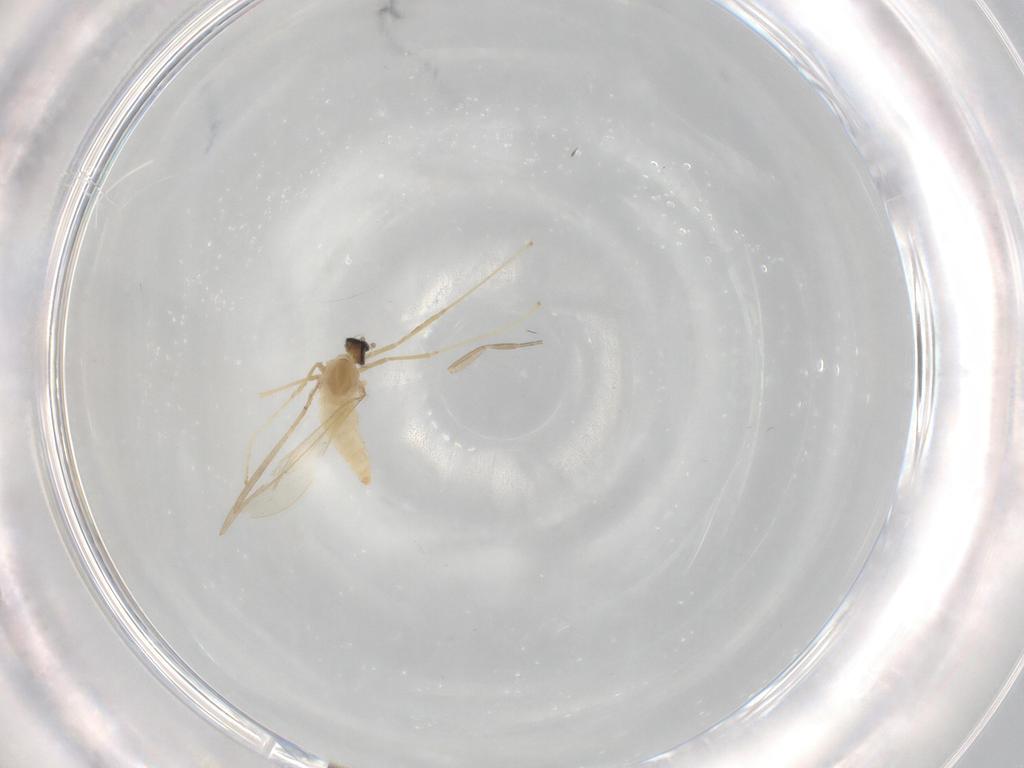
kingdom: Animalia
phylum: Arthropoda
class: Insecta
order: Diptera
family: Cecidomyiidae
